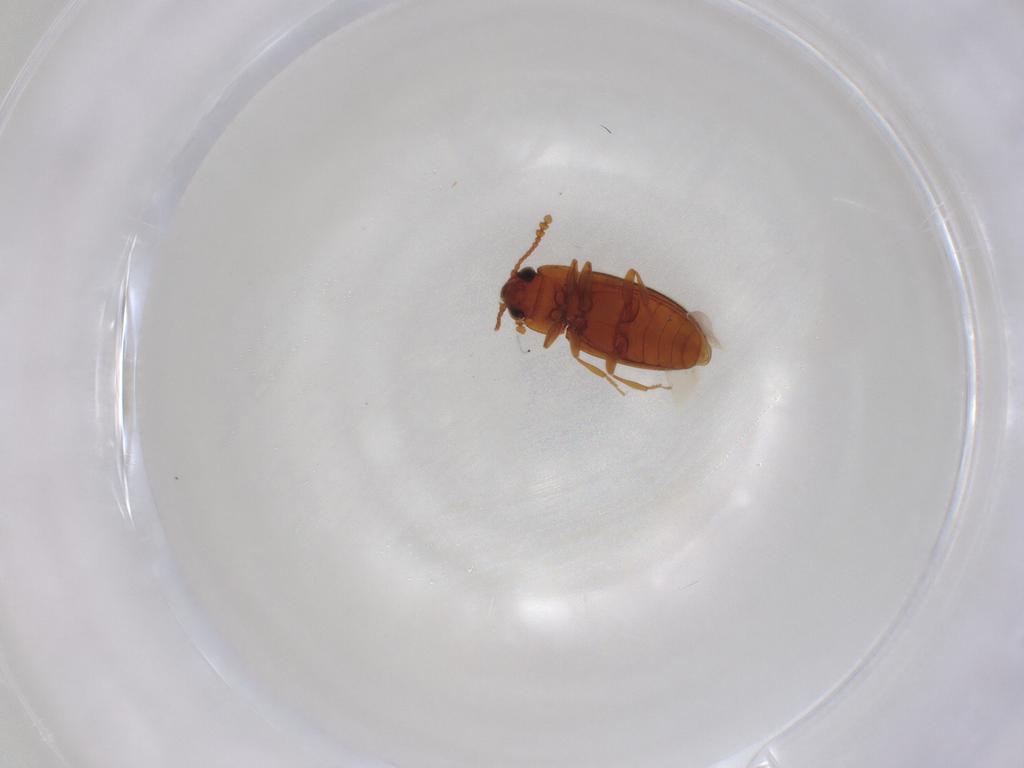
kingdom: Animalia
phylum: Arthropoda
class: Insecta
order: Coleoptera
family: Erotylidae
